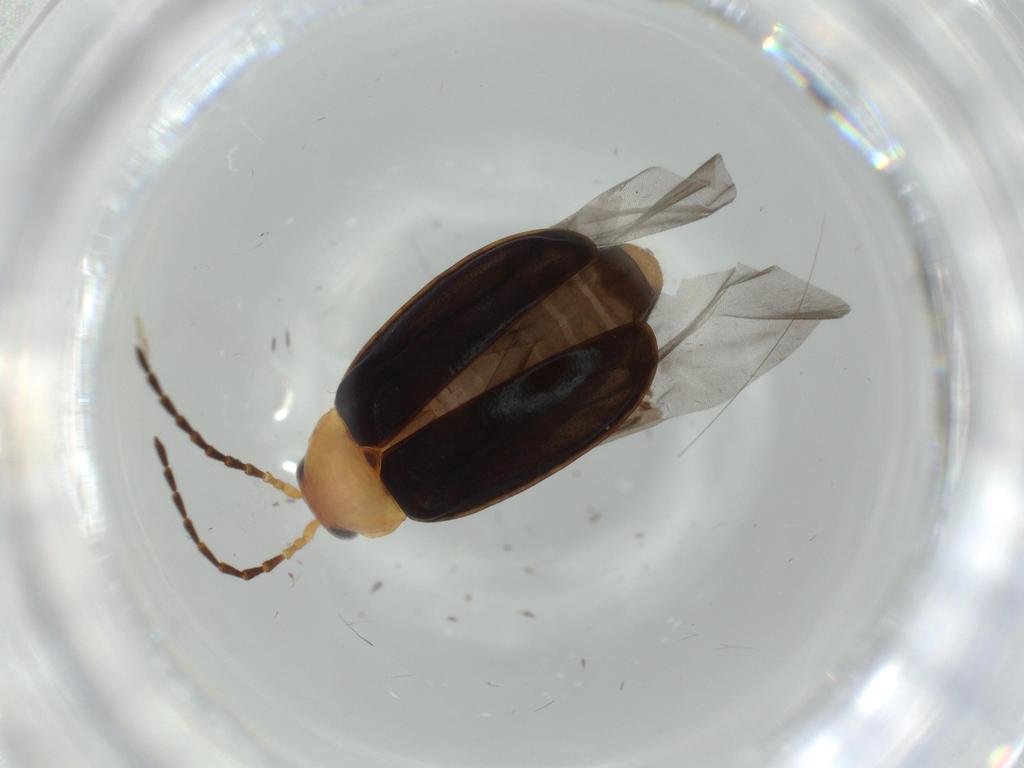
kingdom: Animalia
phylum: Arthropoda
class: Insecta
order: Coleoptera
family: Chrysomelidae
